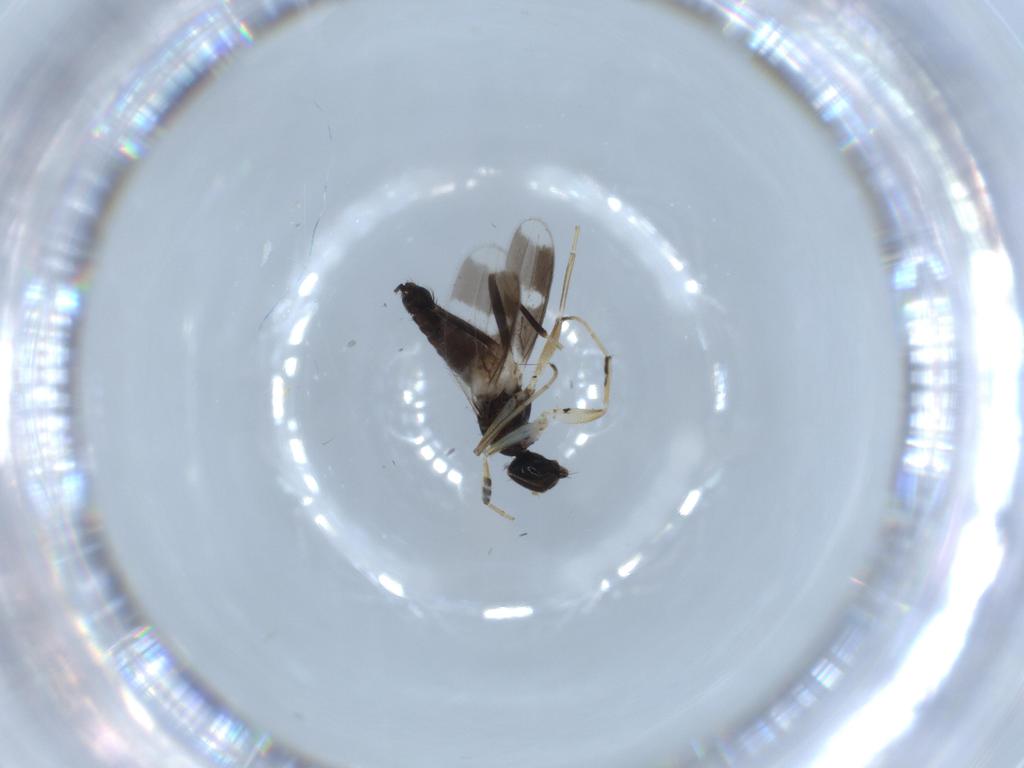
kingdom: Animalia
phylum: Arthropoda
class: Insecta
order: Diptera
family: Hybotidae
